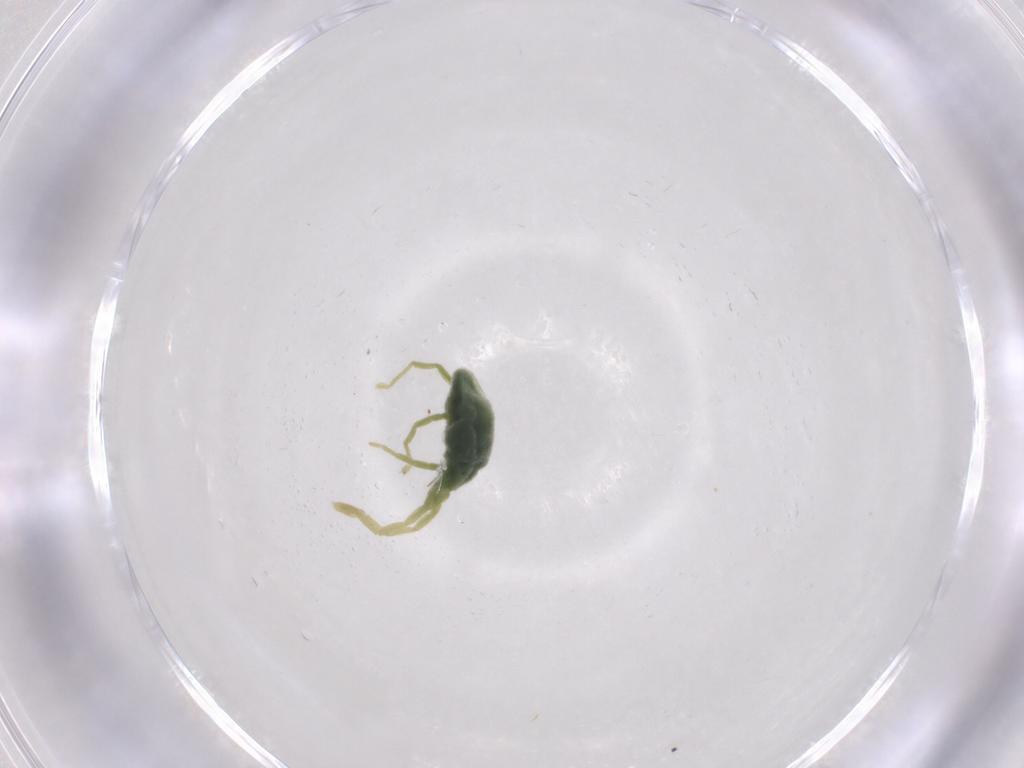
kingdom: Animalia
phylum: Arthropoda
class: Arachnida
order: Trombidiformes
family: Erythraeidae
